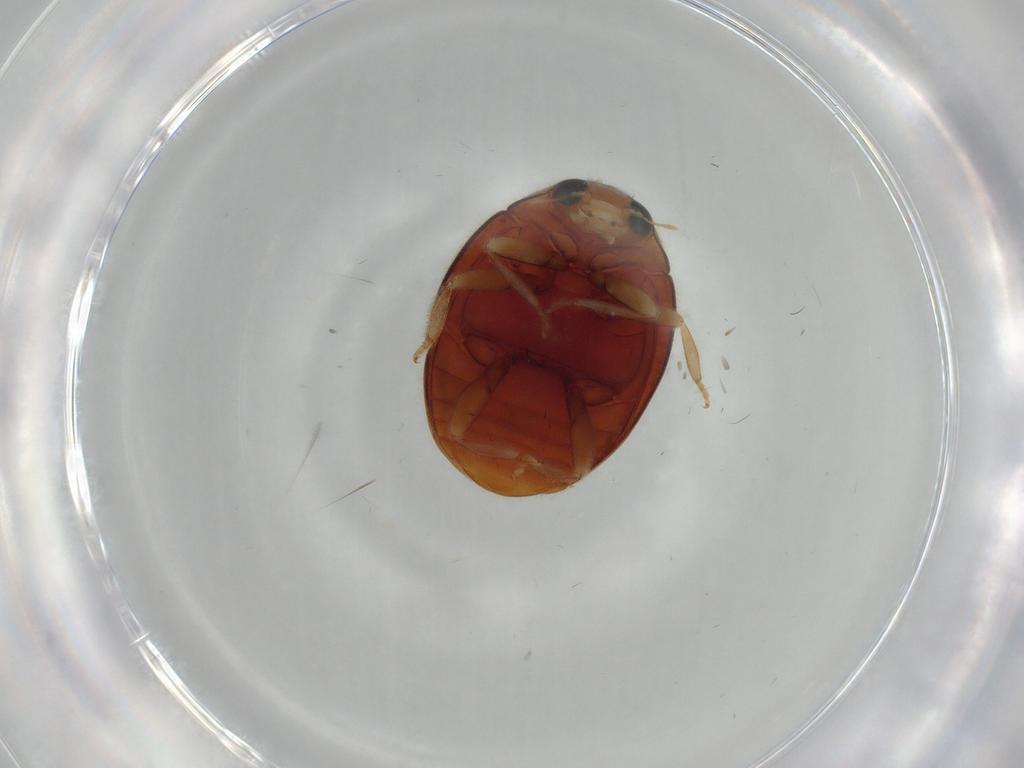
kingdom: Animalia
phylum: Arthropoda
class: Insecta
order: Coleoptera
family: Coccinellidae
